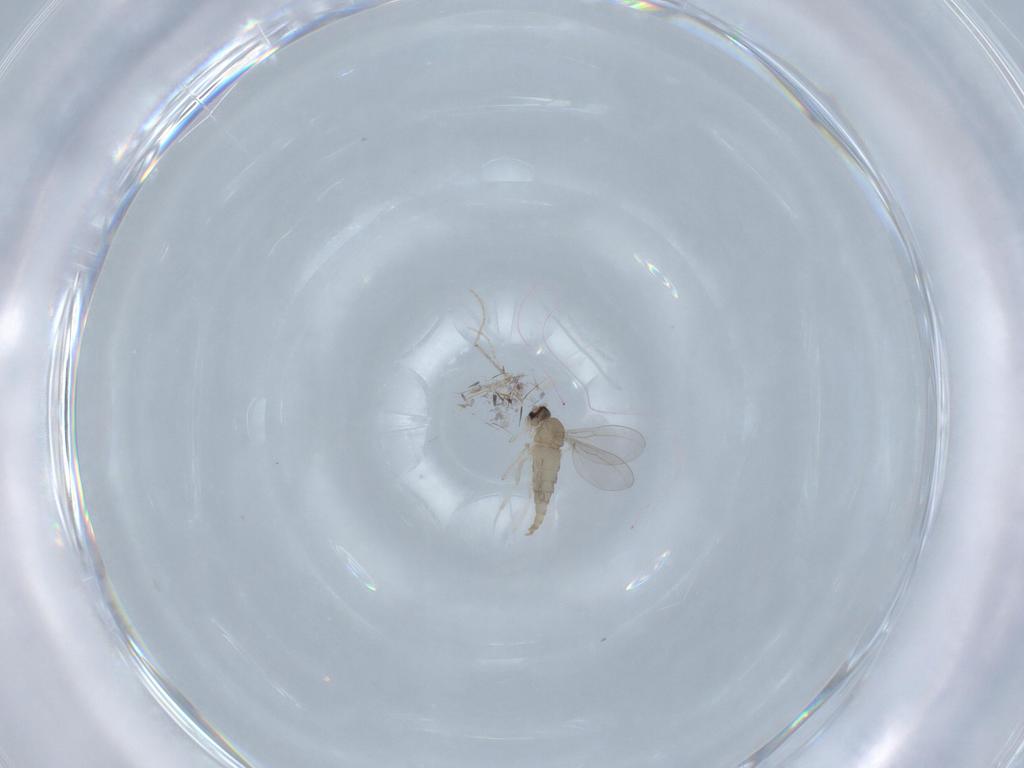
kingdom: Animalia
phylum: Arthropoda
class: Insecta
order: Diptera
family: Cecidomyiidae
